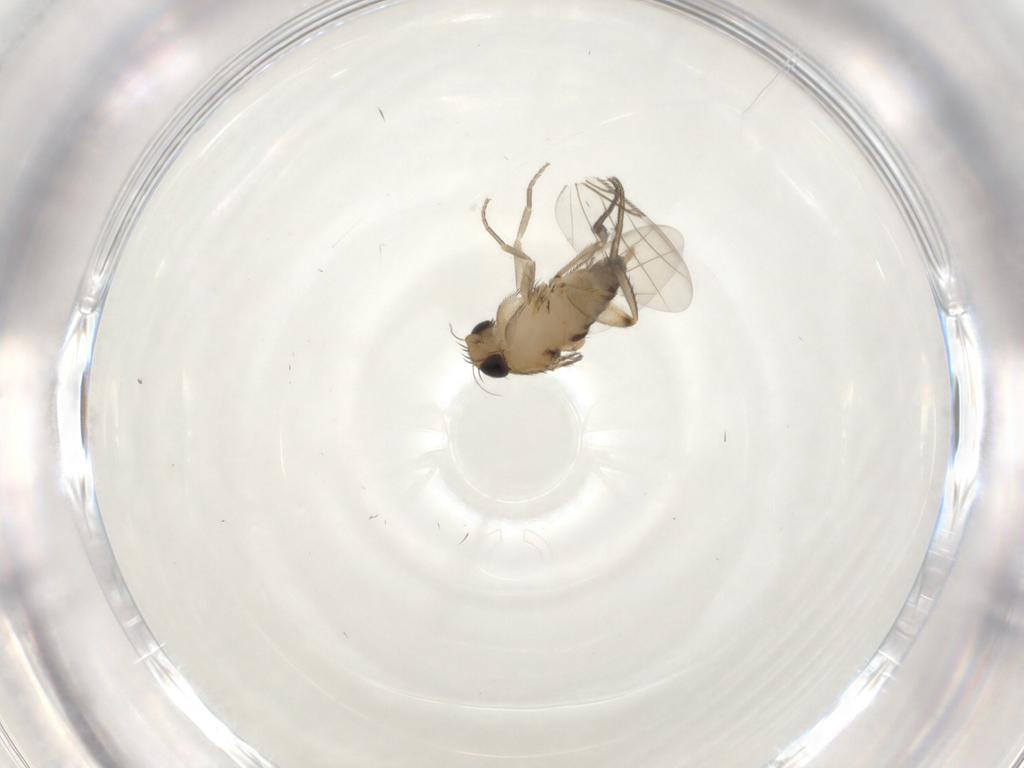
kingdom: Animalia
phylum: Arthropoda
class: Insecta
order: Diptera
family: Phoridae
